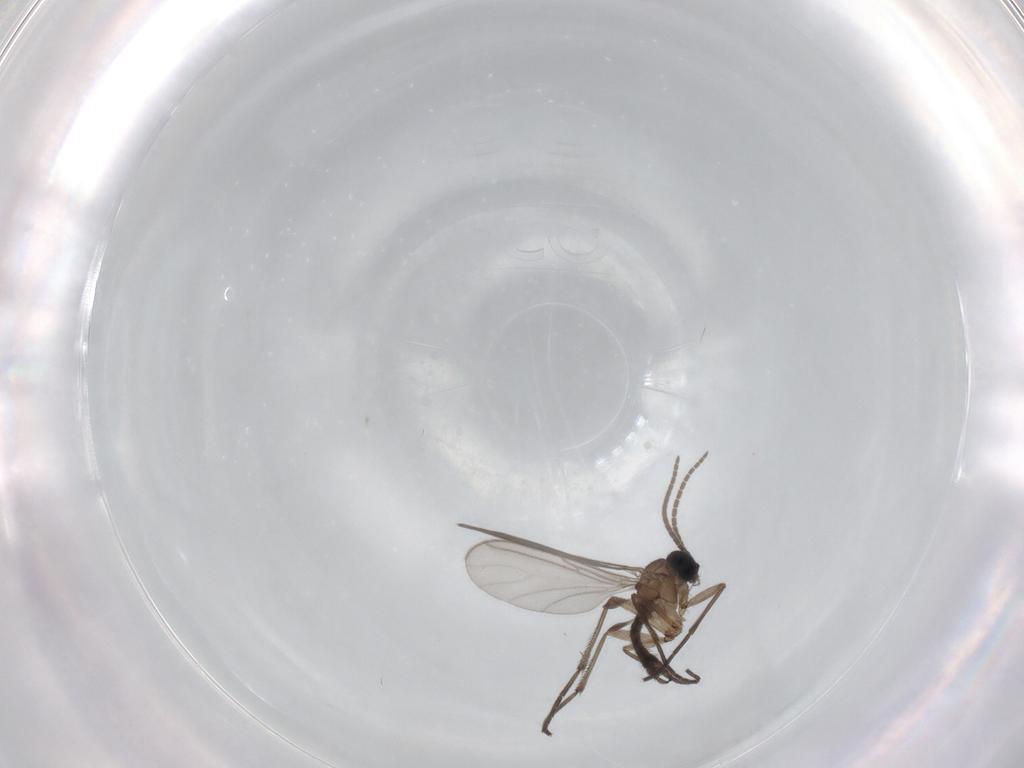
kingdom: Animalia
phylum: Arthropoda
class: Insecta
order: Diptera
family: Sciaridae
